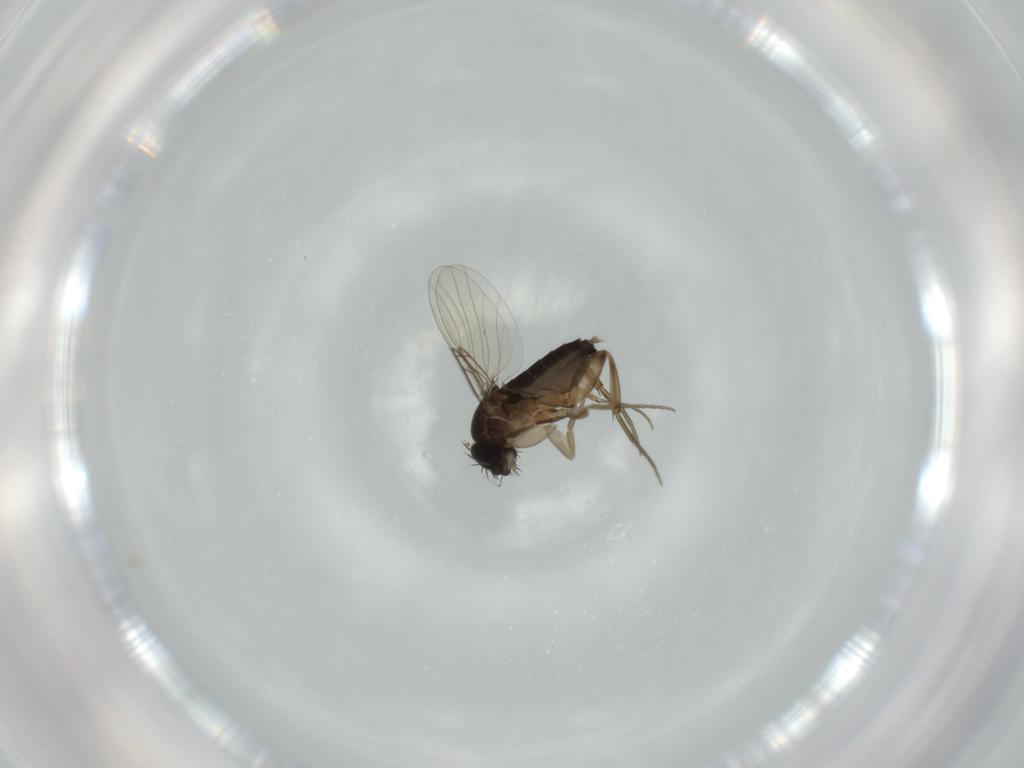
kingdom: Animalia
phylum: Arthropoda
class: Insecta
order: Diptera
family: Phoridae
